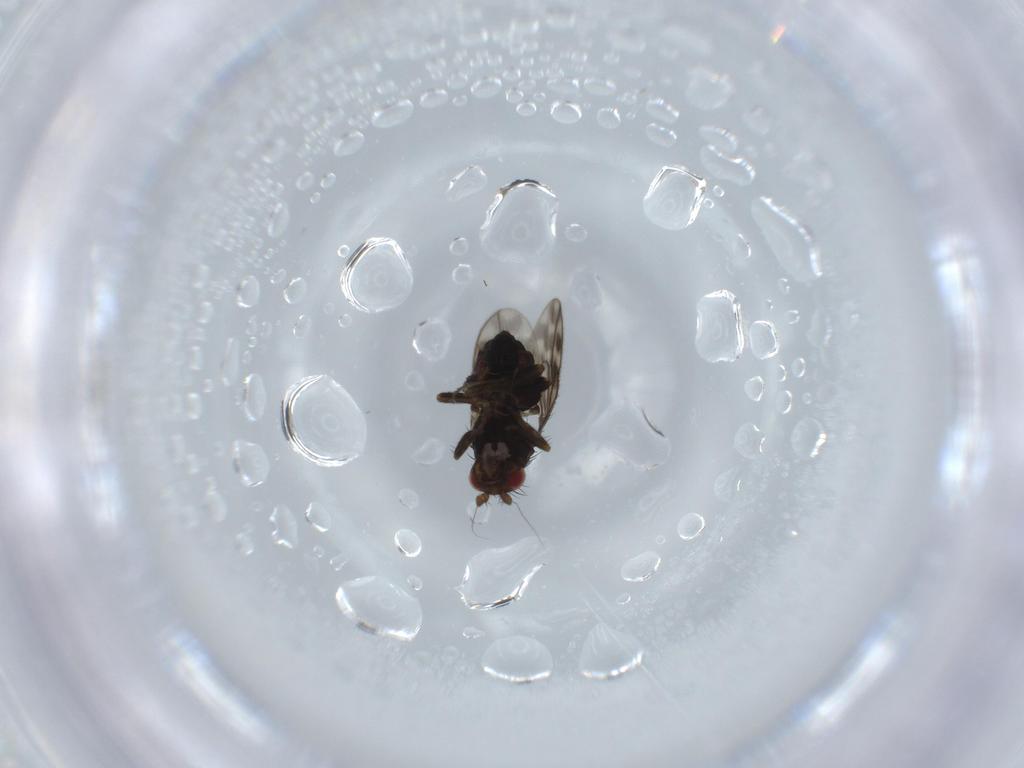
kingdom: Animalia
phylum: Arthropoda
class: Insecta
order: Diptera
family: Sphaeroceridae
